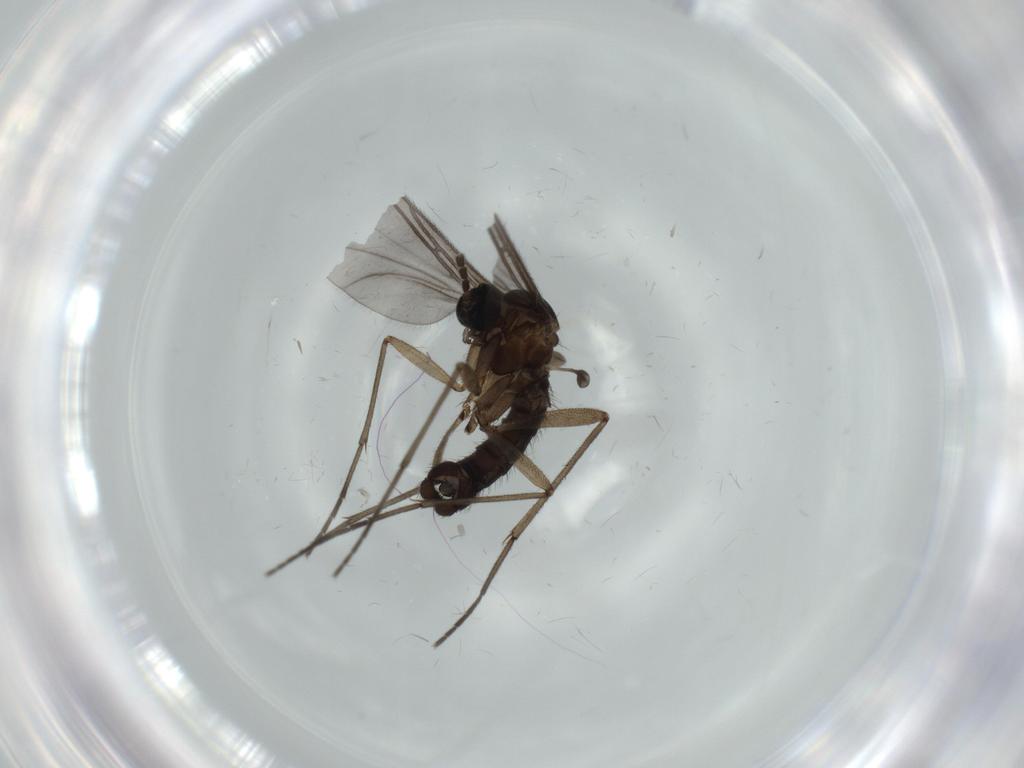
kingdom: Animalia
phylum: Arthropoda
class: Insecta
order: Diptera
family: Sciaridae
